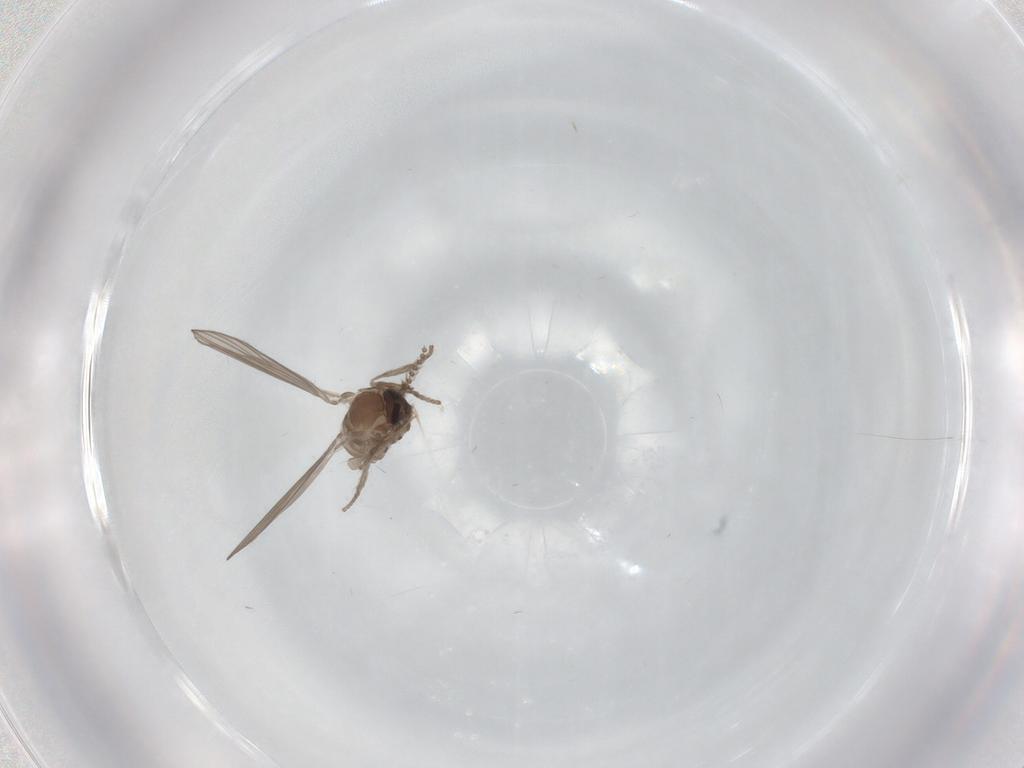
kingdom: Animalia
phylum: Arthropoda
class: Insecta
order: Diptera
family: Psychodidae
